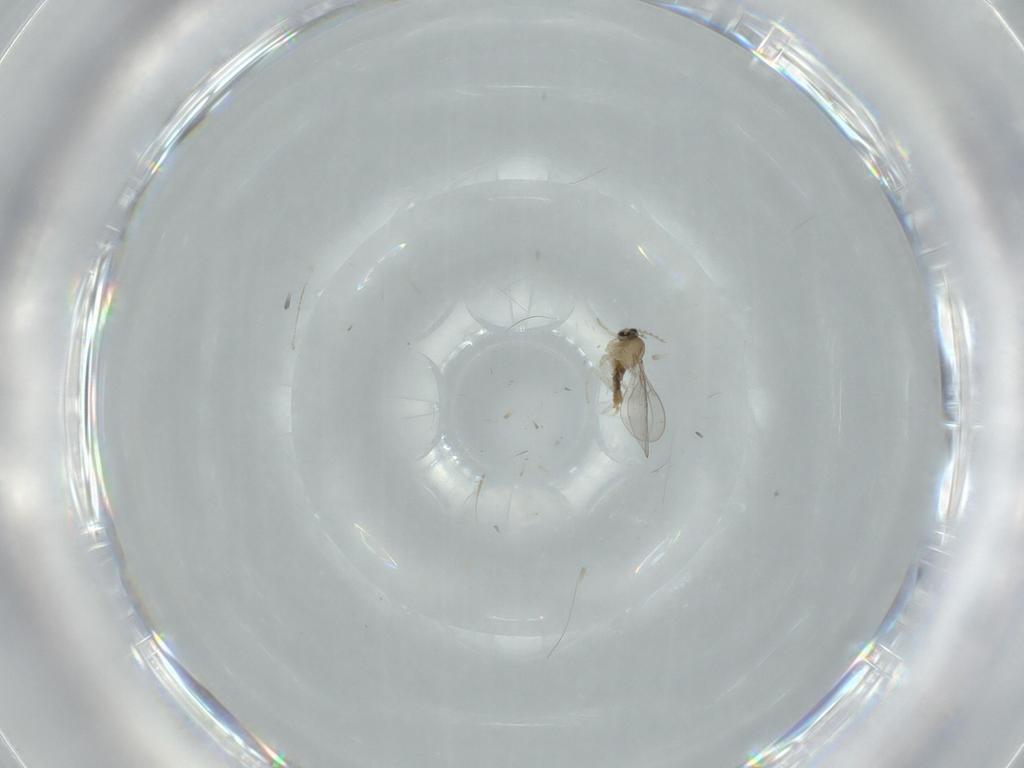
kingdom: Animalia
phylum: Arthropoda
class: Insecta
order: Diptera
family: Cecidomyiidae
